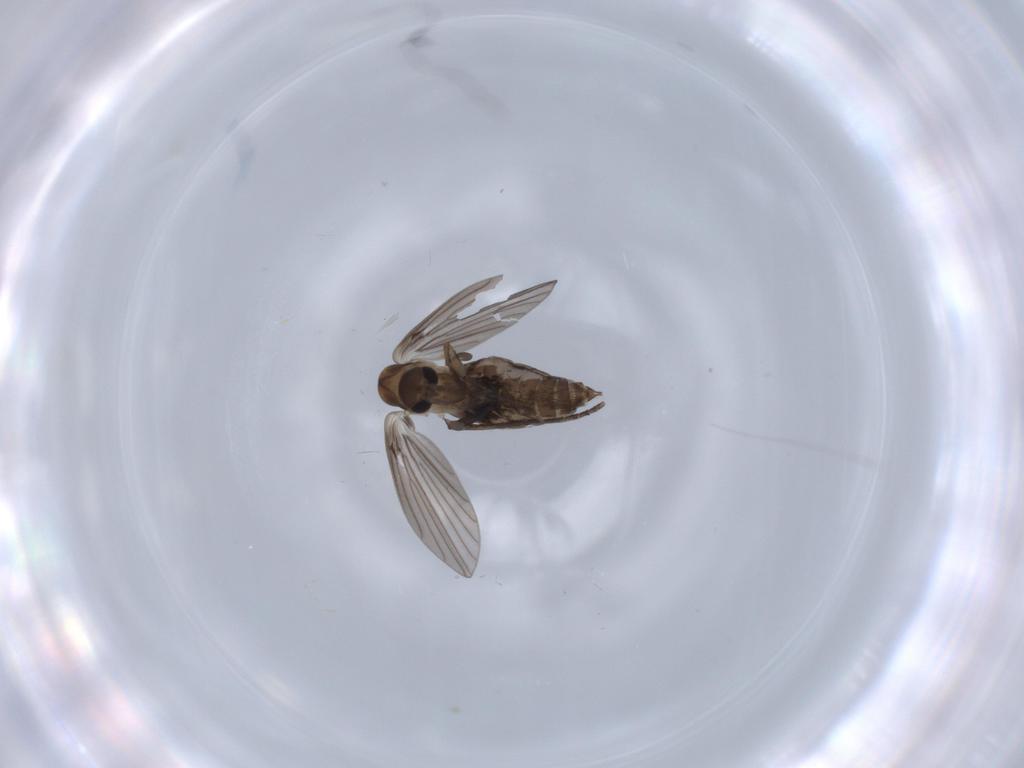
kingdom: Animalia
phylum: Arthropoda
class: Insecta
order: Diptera
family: Psychodidae
